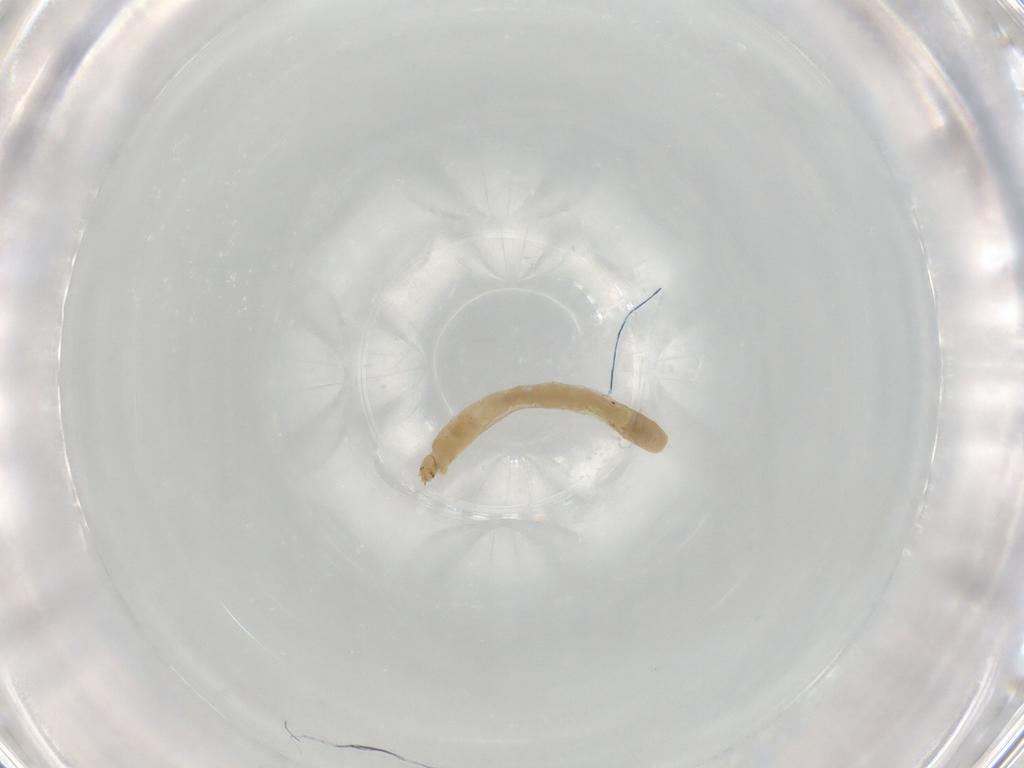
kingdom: Animalia
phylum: Arthropoda
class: Insecta
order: Diptera
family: Chironomidae
